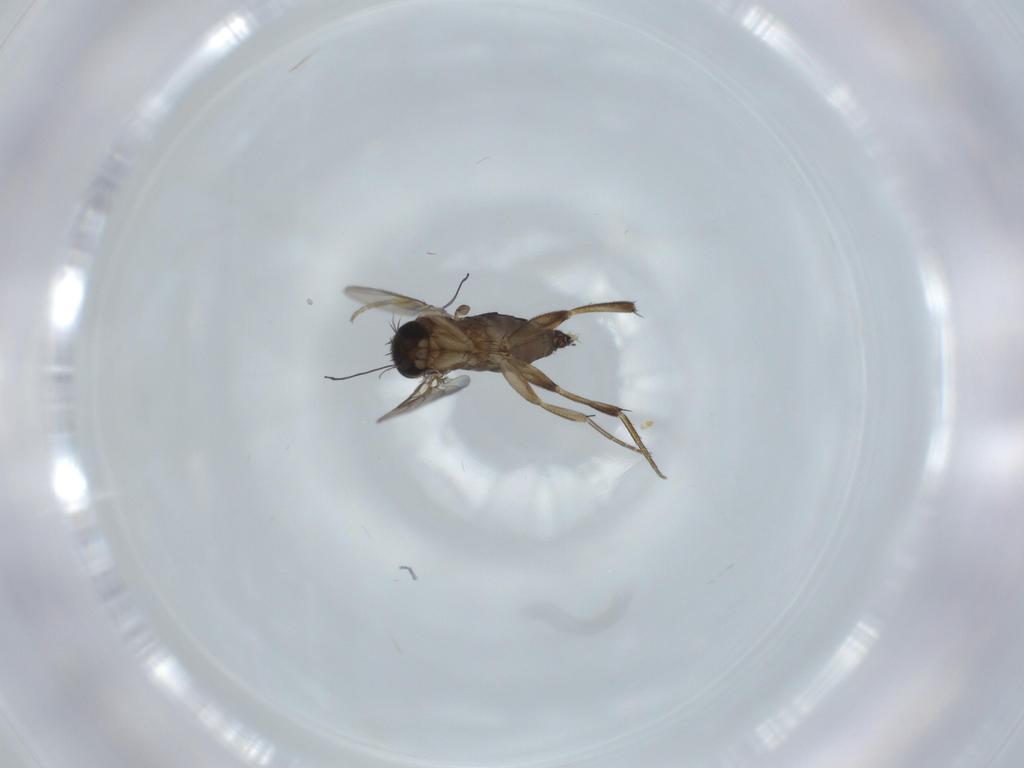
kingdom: Animalia
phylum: Arthropoda
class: Insecta
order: Diptera
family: Phoridae
